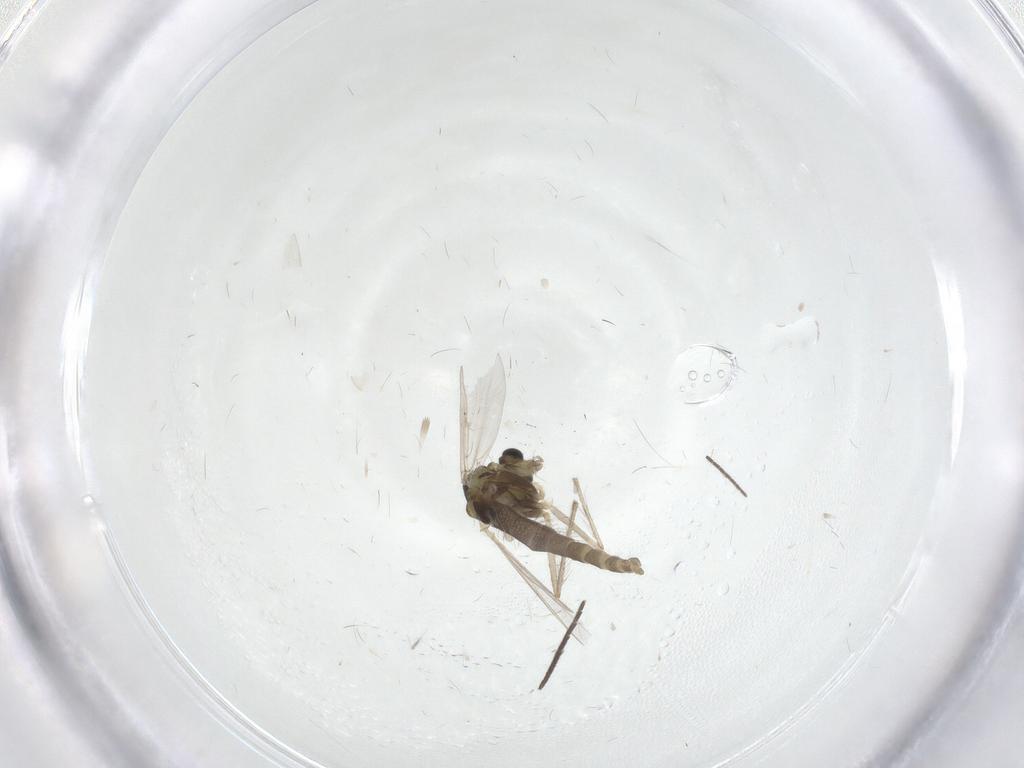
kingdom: Animalia
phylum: Arthropoda
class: Insecta
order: Diptera
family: Chironomidae
